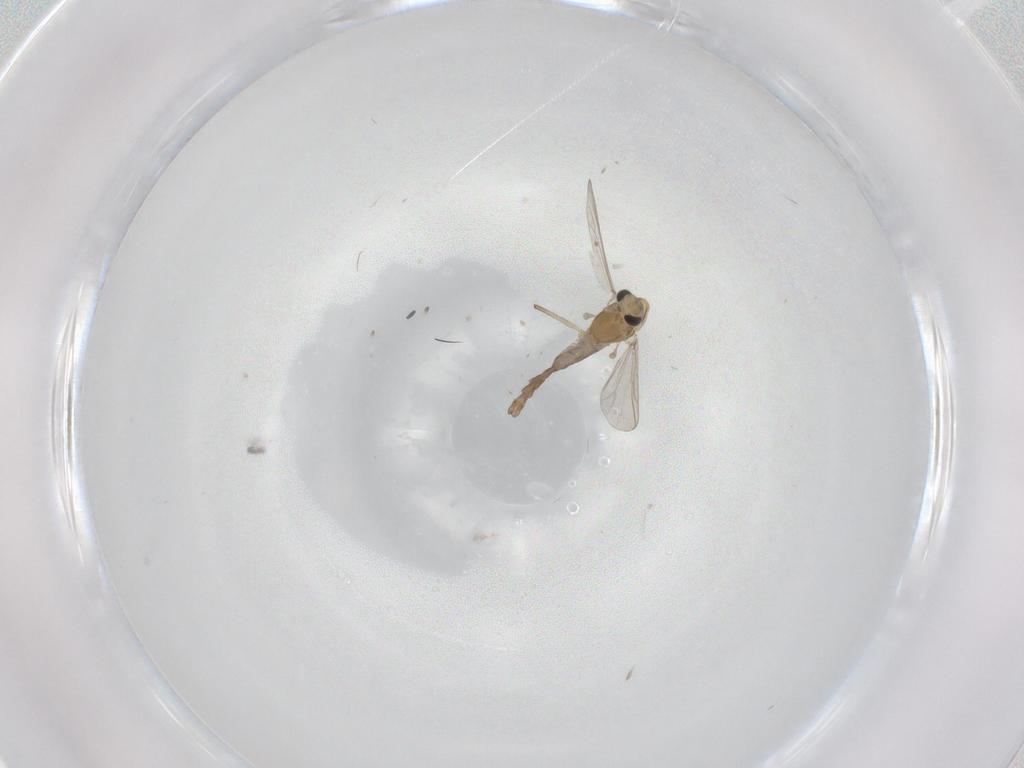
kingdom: Animalia
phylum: Arthropoda
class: Insecta
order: Diptera
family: Chironomidae
